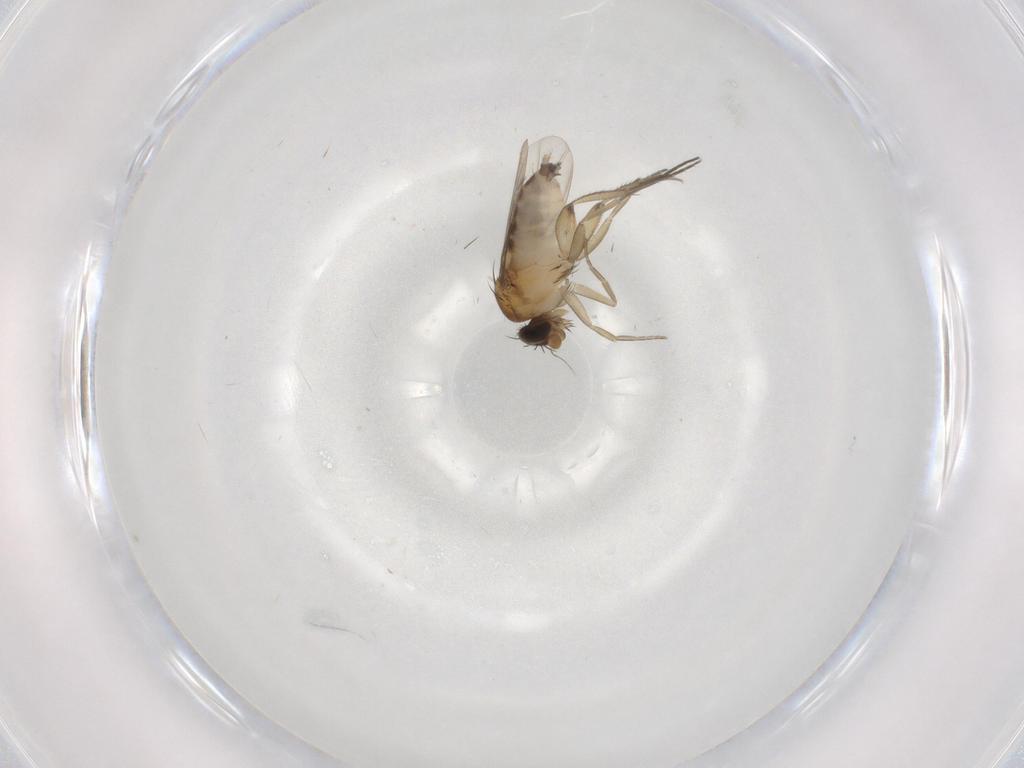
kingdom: Animalia
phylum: Arthropoda
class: Insecta
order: Diptera
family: Phoridae
